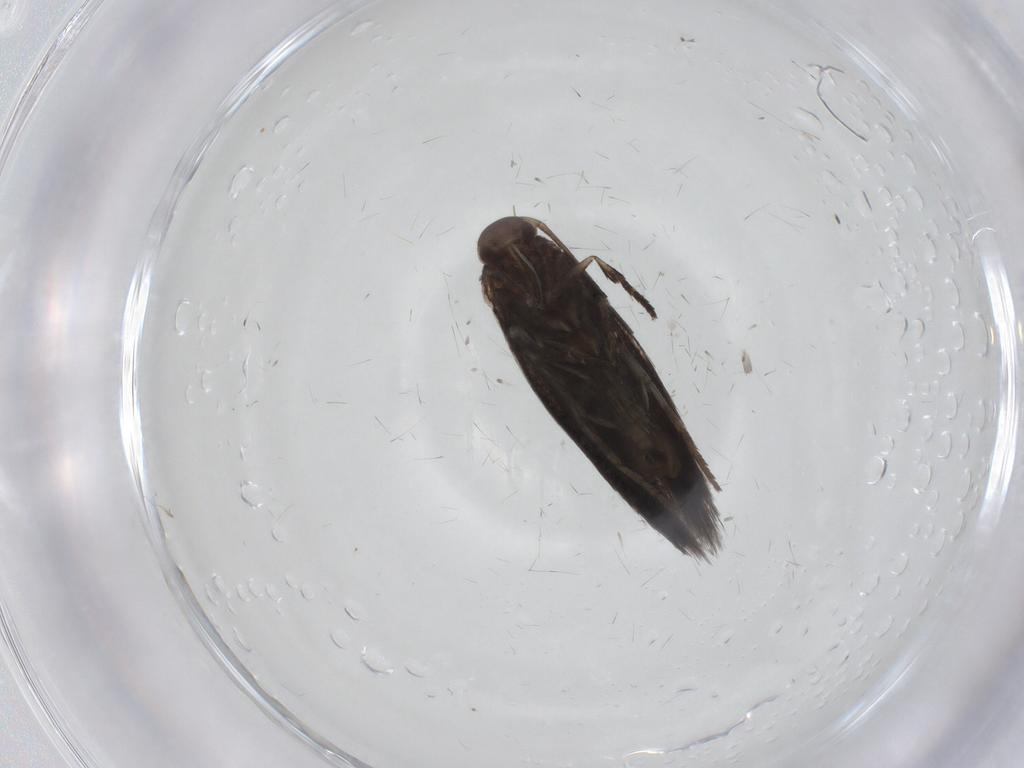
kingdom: Animalia
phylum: Arthropoda
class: Insecta
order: Lepidoptera
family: Elachistidae
